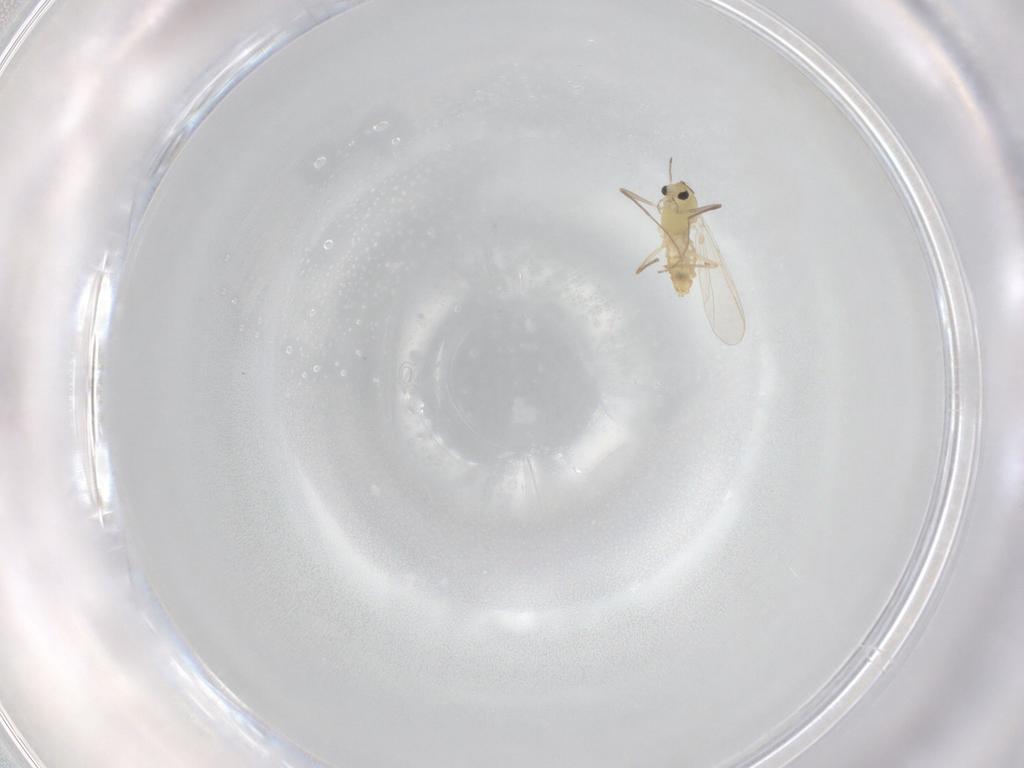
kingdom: Animalia
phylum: Arthropoda
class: Insecta
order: Diptera
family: Chironomidae
